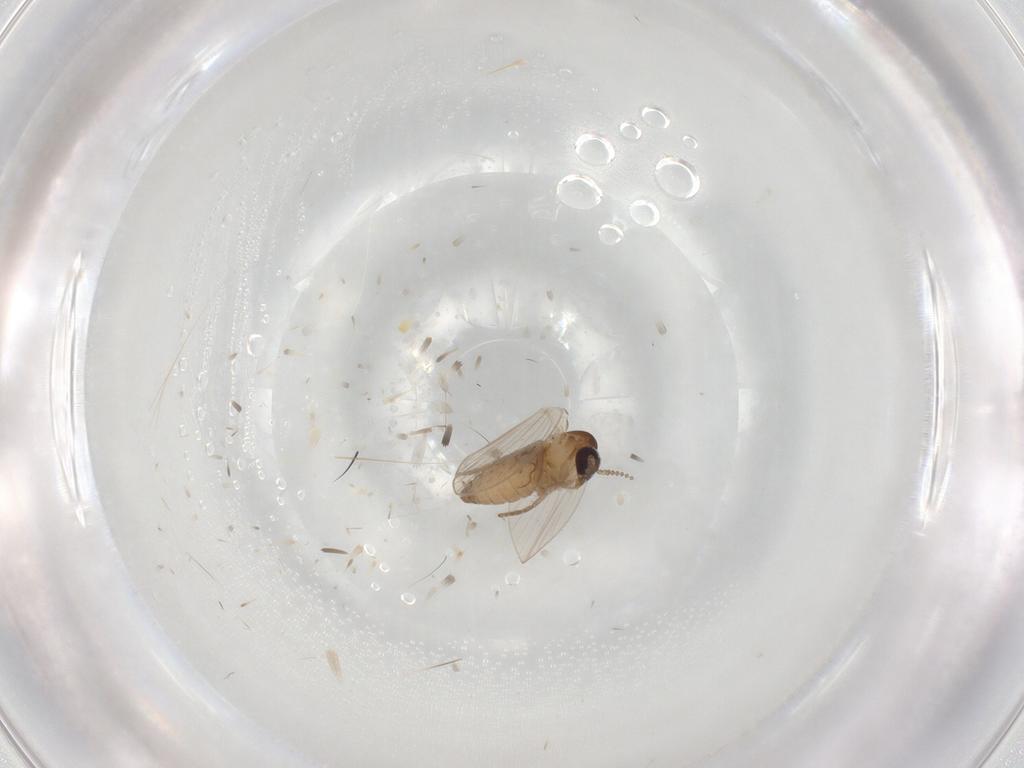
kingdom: Animalia
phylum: Arthropoda
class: Insecta
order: Diptera
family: Psychodidae
